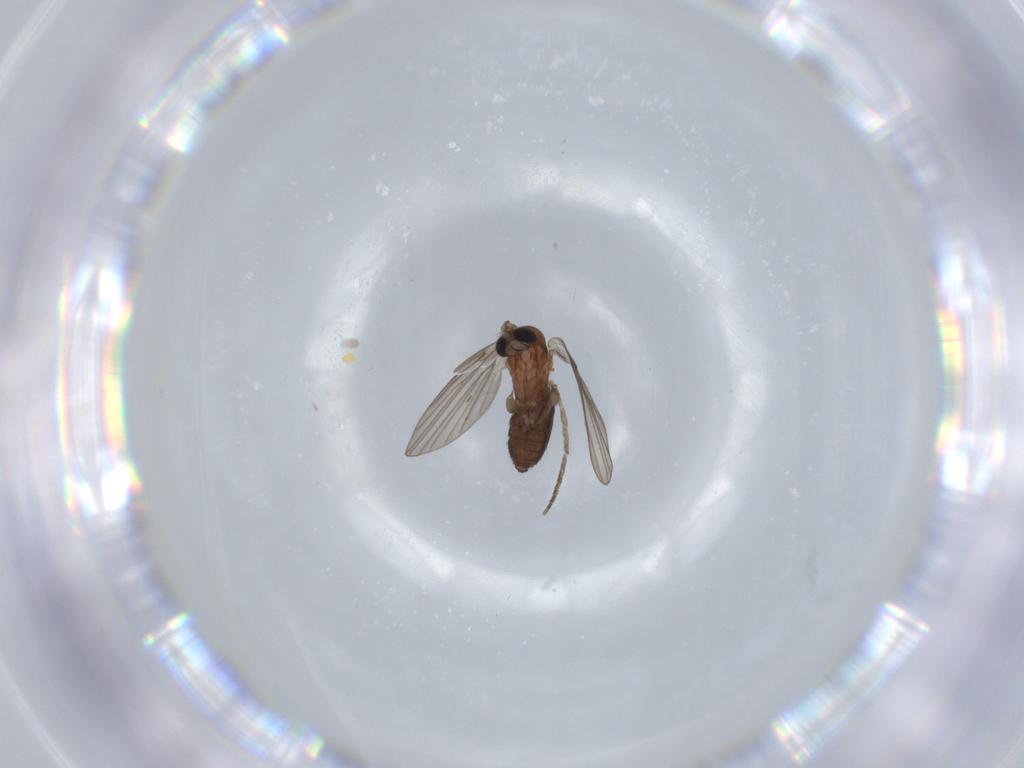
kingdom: Animalia
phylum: Arthropoda
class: Insecta
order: Diptera
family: Psychodidae
